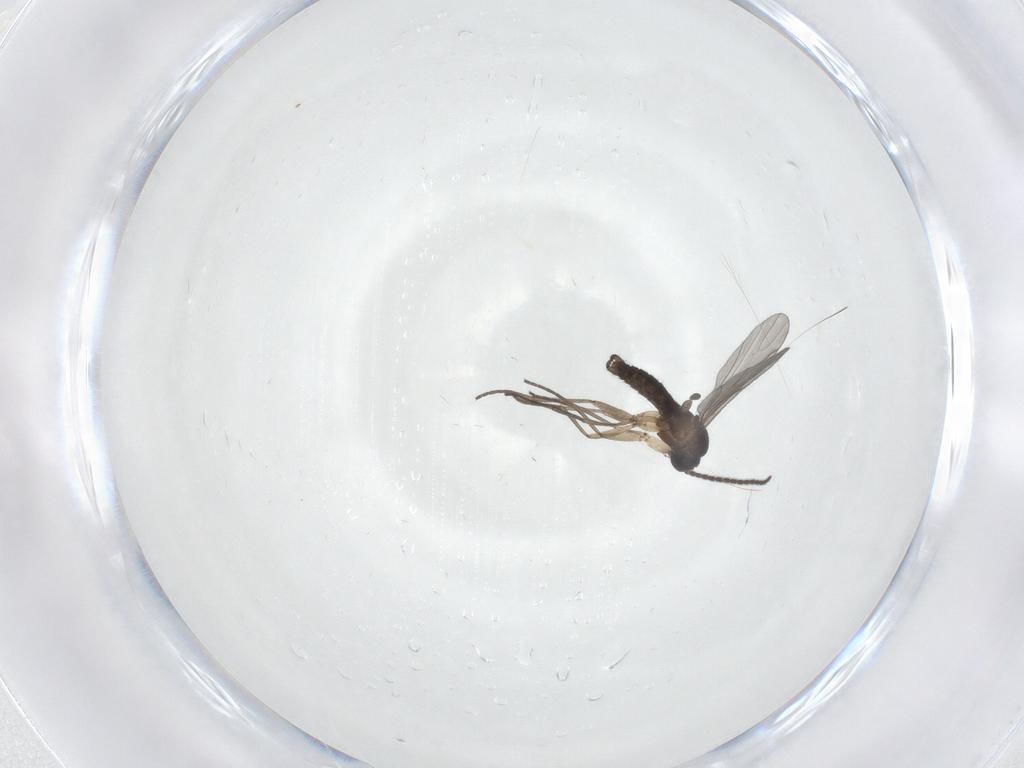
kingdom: Animalia
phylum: Arthropoda
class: Insecta
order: Diptera
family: Sciaridae
